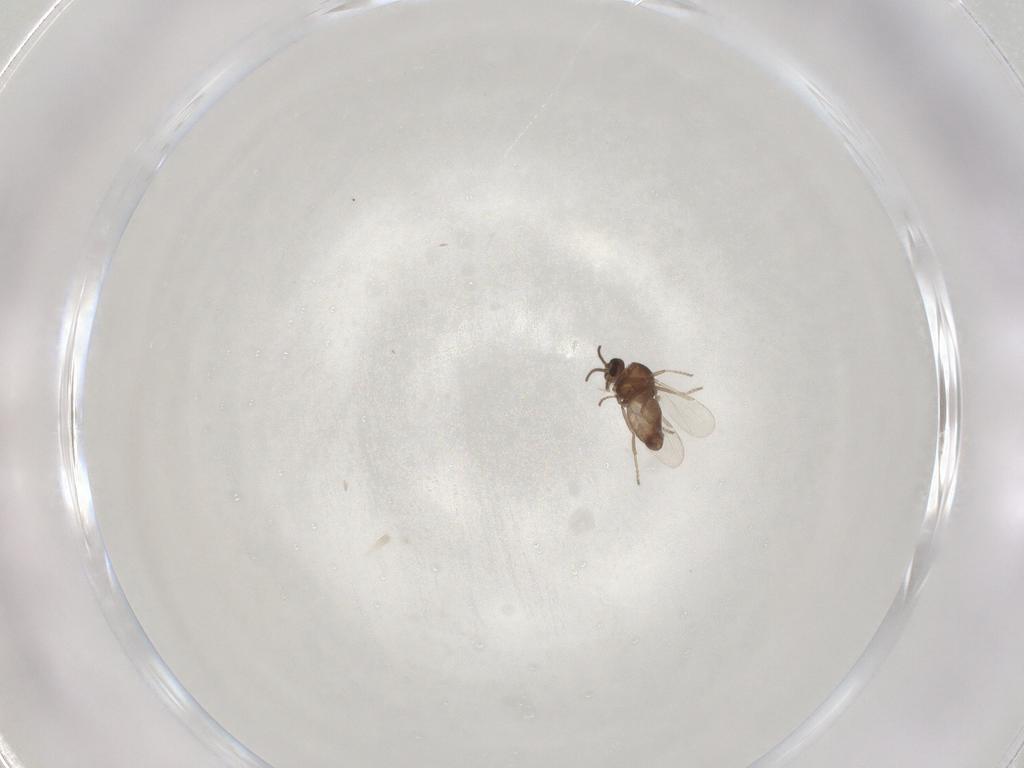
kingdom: Animalia
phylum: Arthropoda
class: Insecta
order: Diptera
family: Ceratopogonidae
